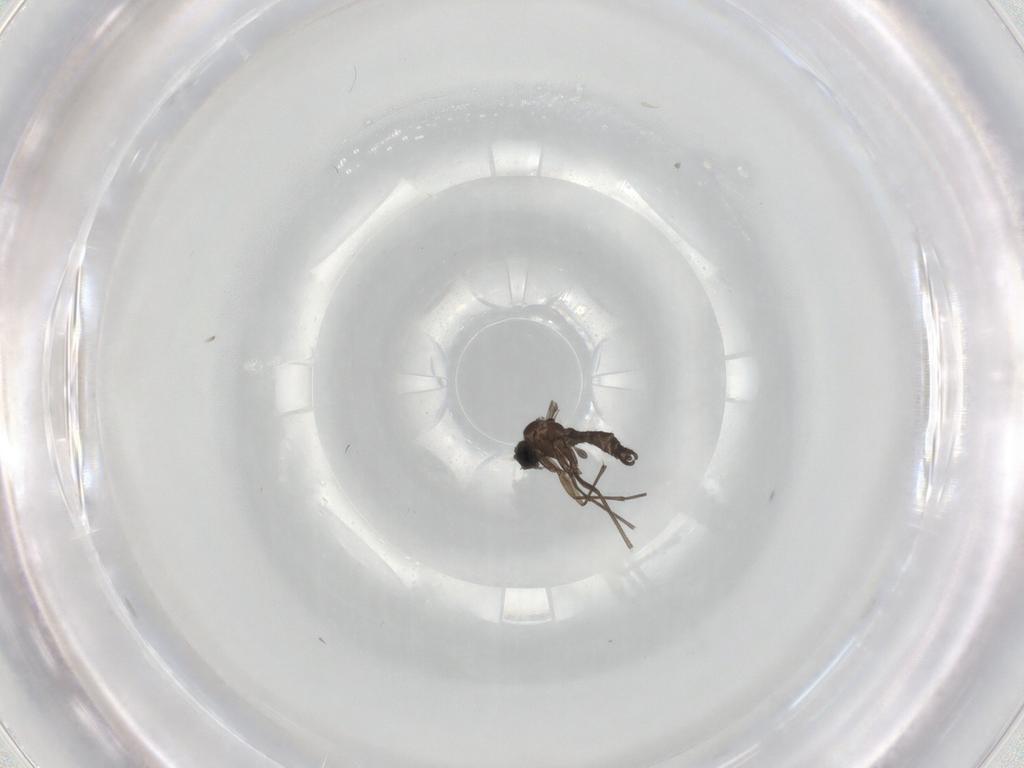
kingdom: Animalia
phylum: Arthropoda
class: Insecta
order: Diptera
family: Sciaridae
